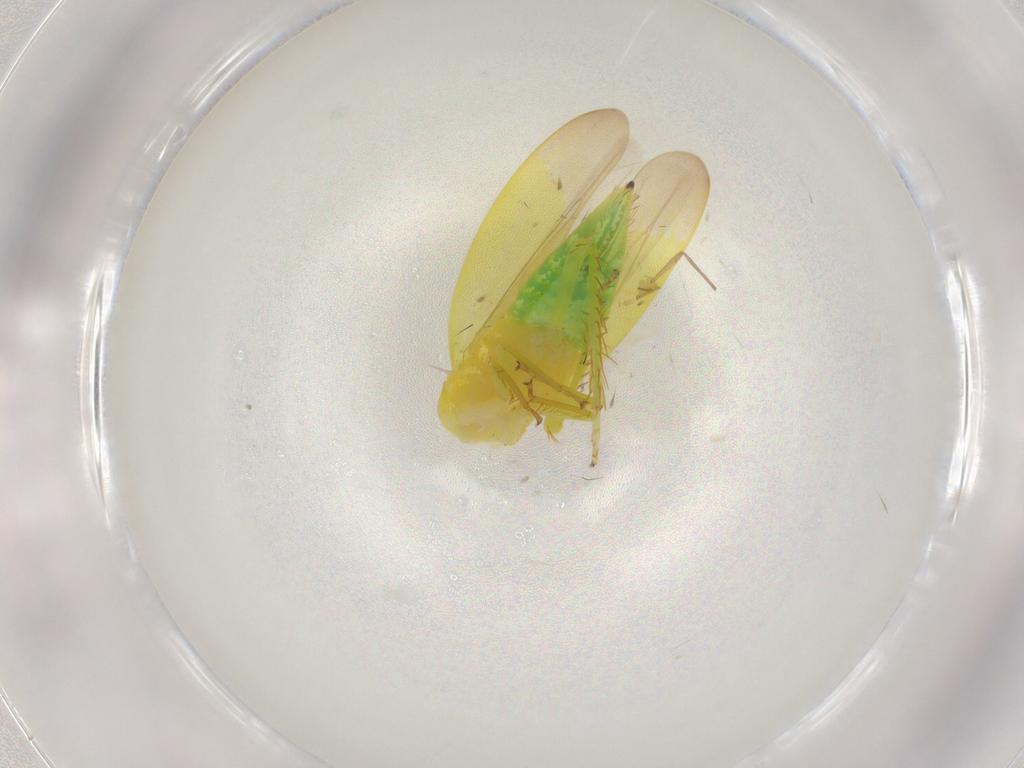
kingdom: Animalia
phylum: Arthropoda
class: Insecta
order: Hemiptera
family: Cicadellidae
